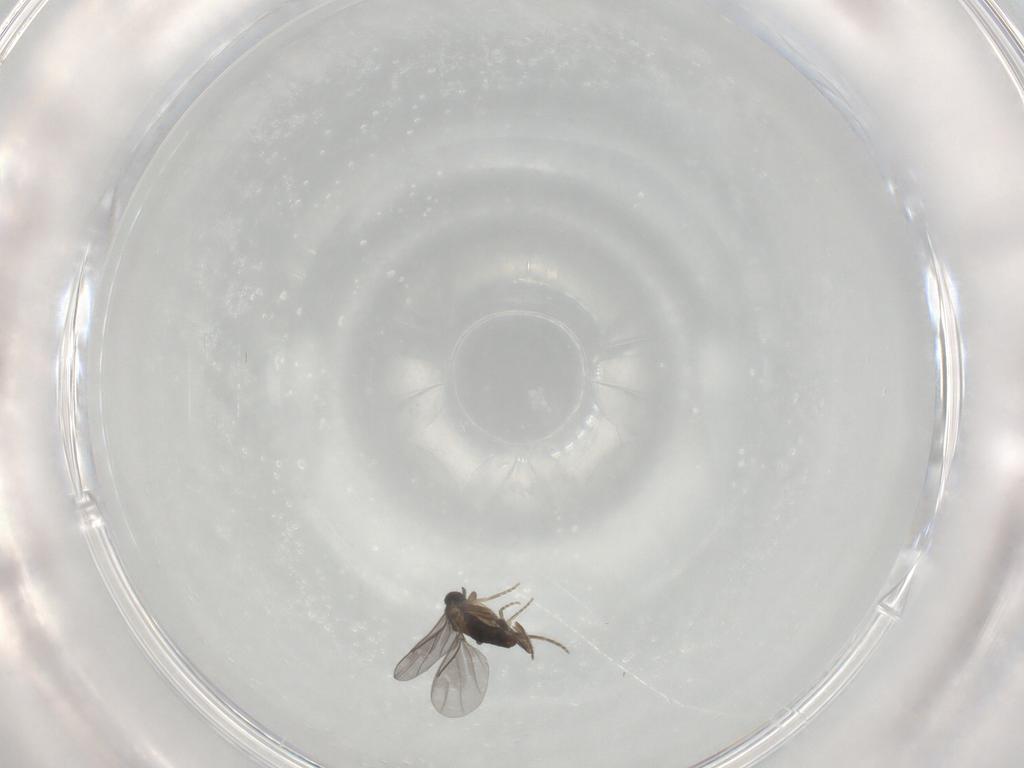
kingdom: Animalia
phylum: Arthropoda
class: Insecta
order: Diptera
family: Phoridae
